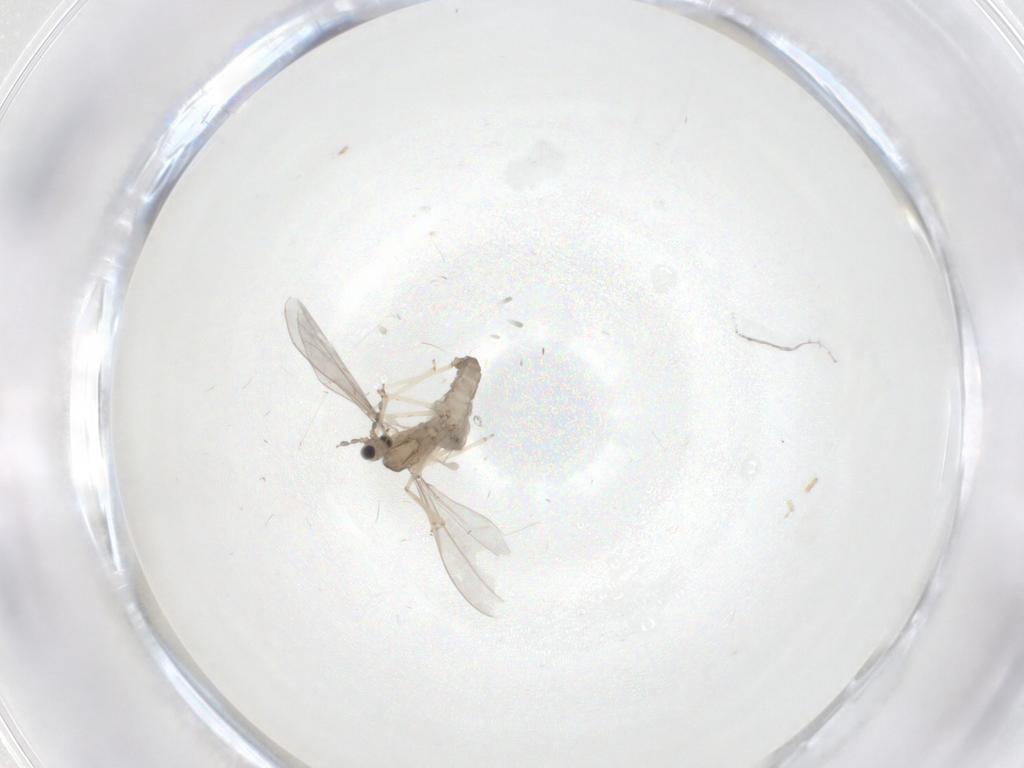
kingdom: Animalia
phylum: Arthropoda
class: Insecta
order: Diptera
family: Cecidomyiidae
